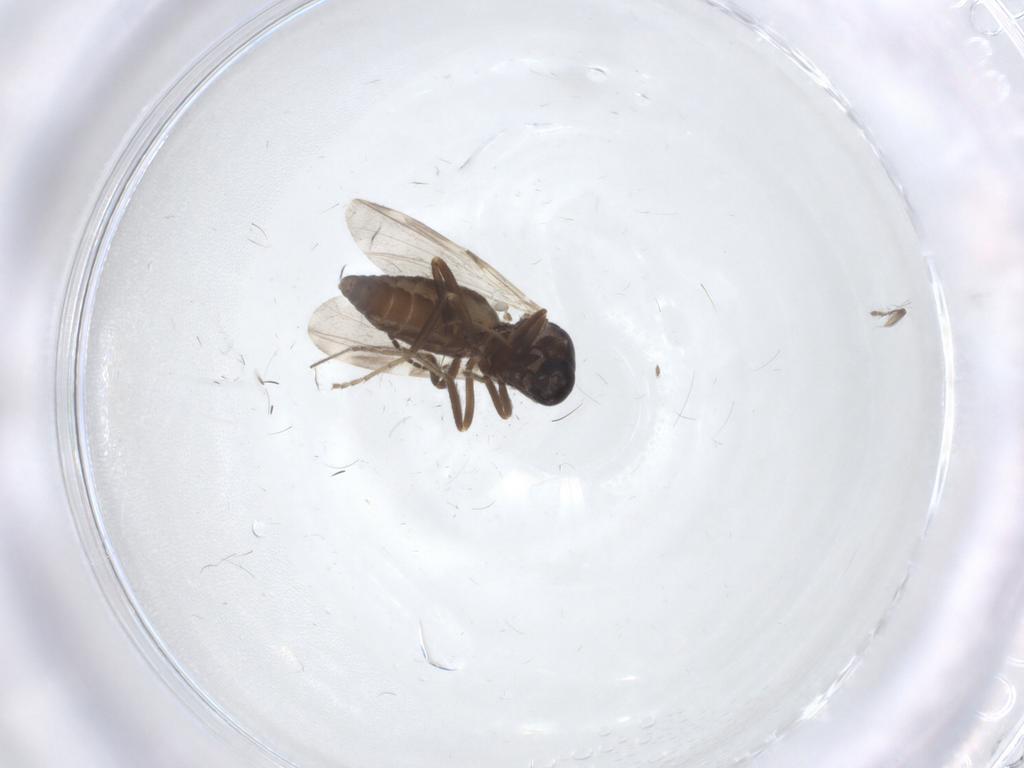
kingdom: Animalia
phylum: Arthropoda
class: Insecta
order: Diptera
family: Ceratopogonidae
